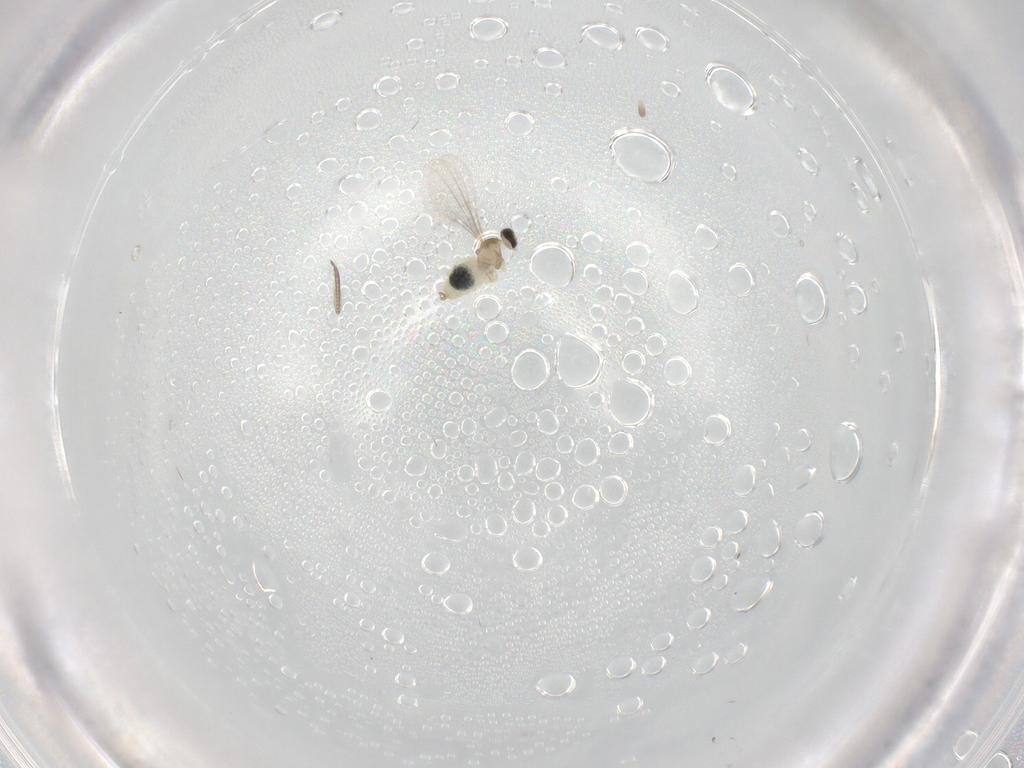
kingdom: Animalia
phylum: Arthropoda
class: Insecta
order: Diptera
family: Cecidomyiidae
